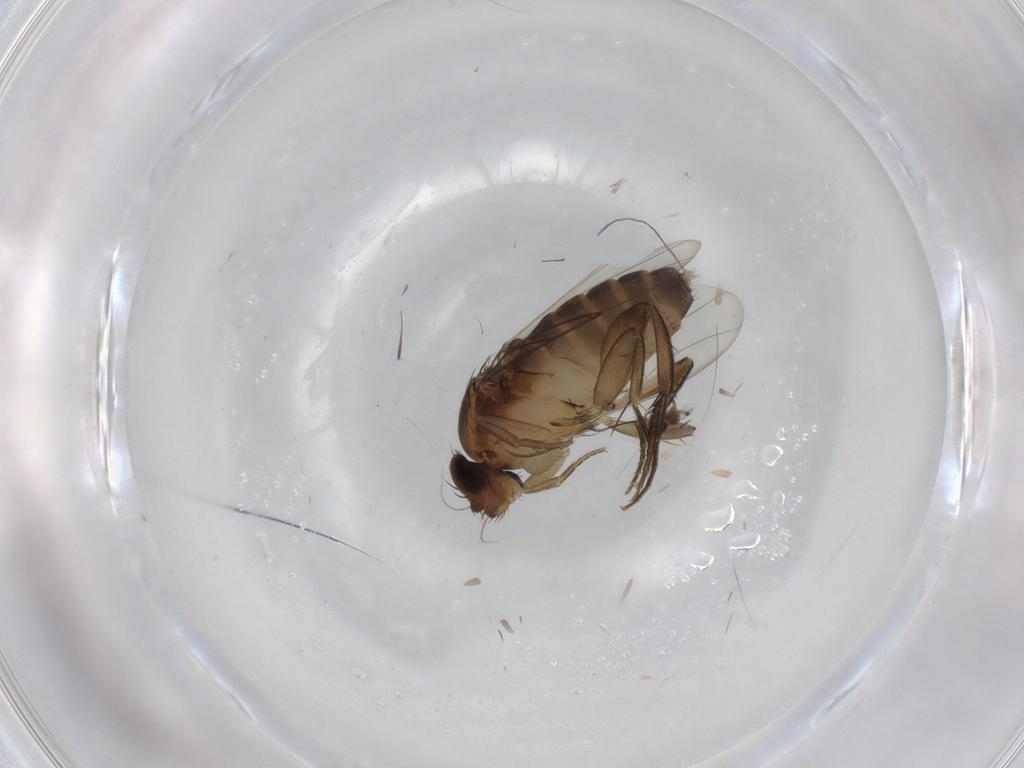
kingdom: Animalia
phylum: Arthropoda
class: Insecta
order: Diptera
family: Phoridae
